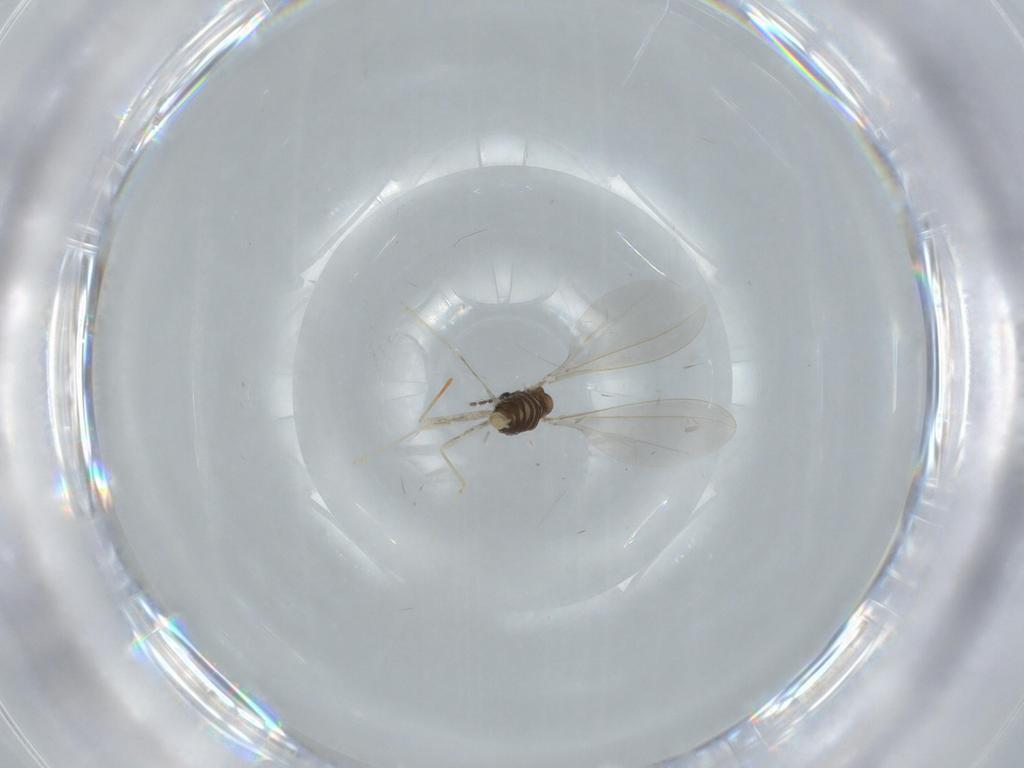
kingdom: Animalia
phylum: Arthropoda
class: Insecta
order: Diptera
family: Cecidomyiidae
